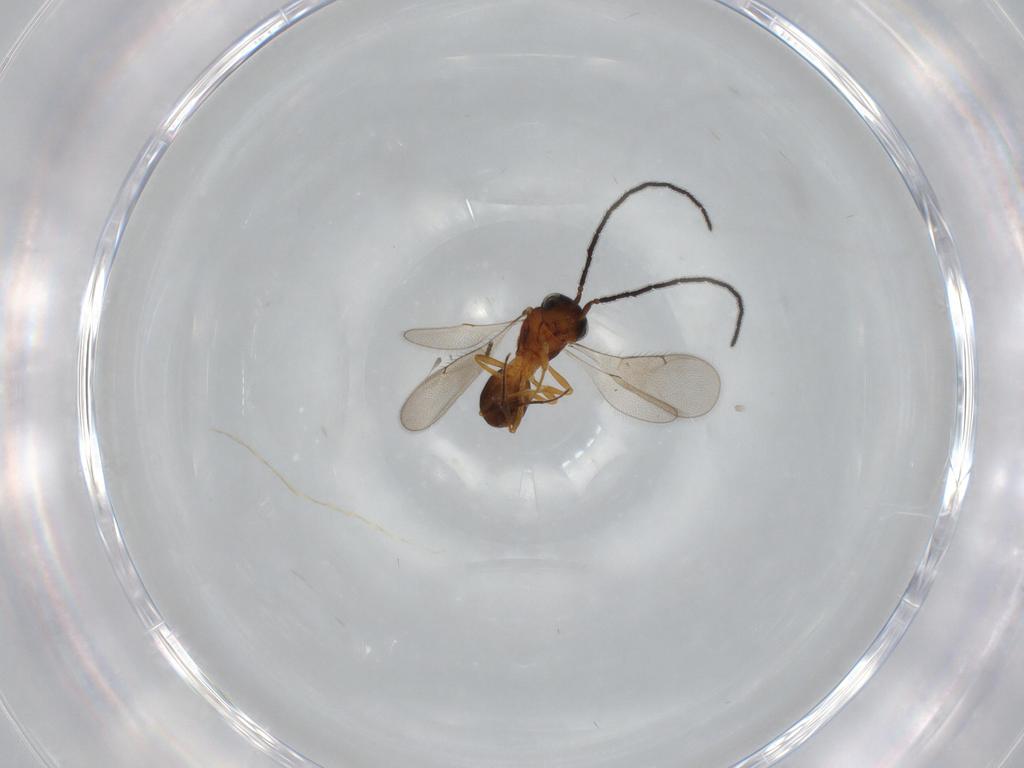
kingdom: Animalia
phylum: Arthropoda
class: Insecta
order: Hymenoptera
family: Scelionidae
